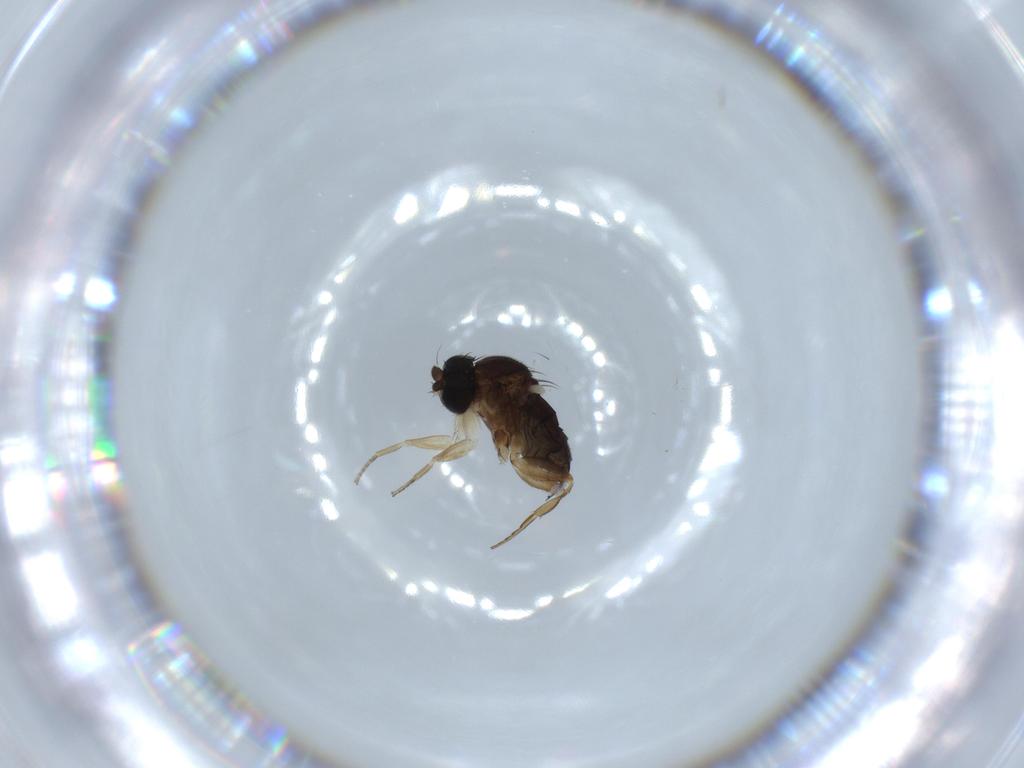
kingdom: Animalia
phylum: Arthropoda
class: Insecta
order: Diptera
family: Phoridae
